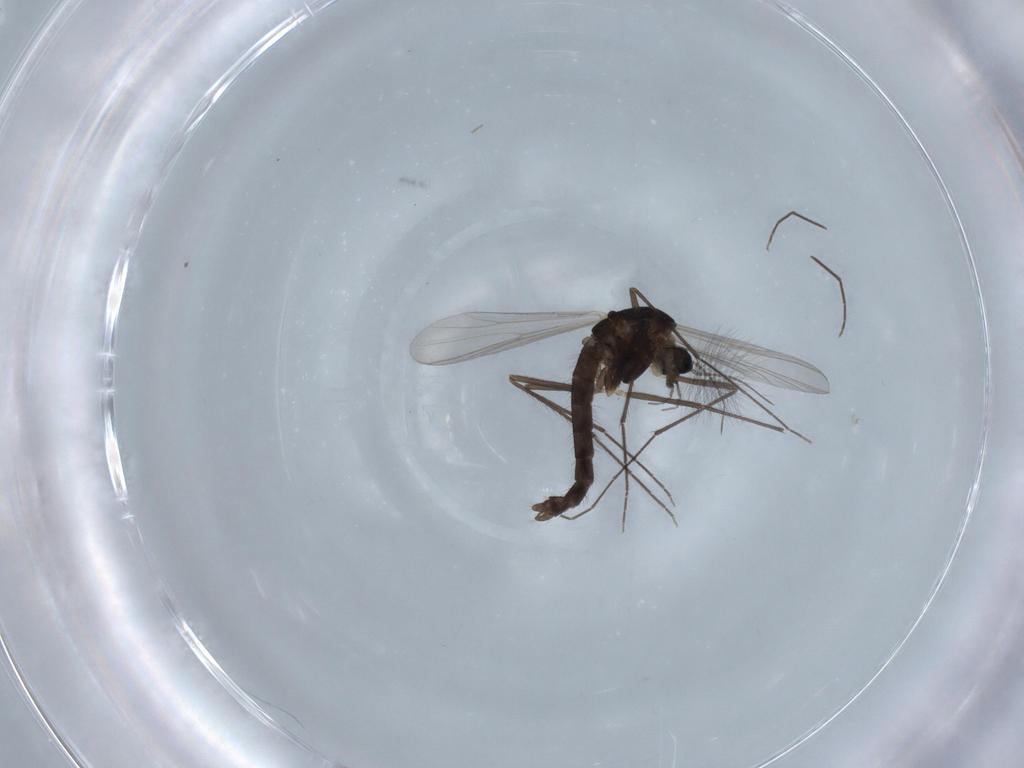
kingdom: Animalia
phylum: Arthropoda
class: Insecta
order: Diptera
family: Chironomidae
